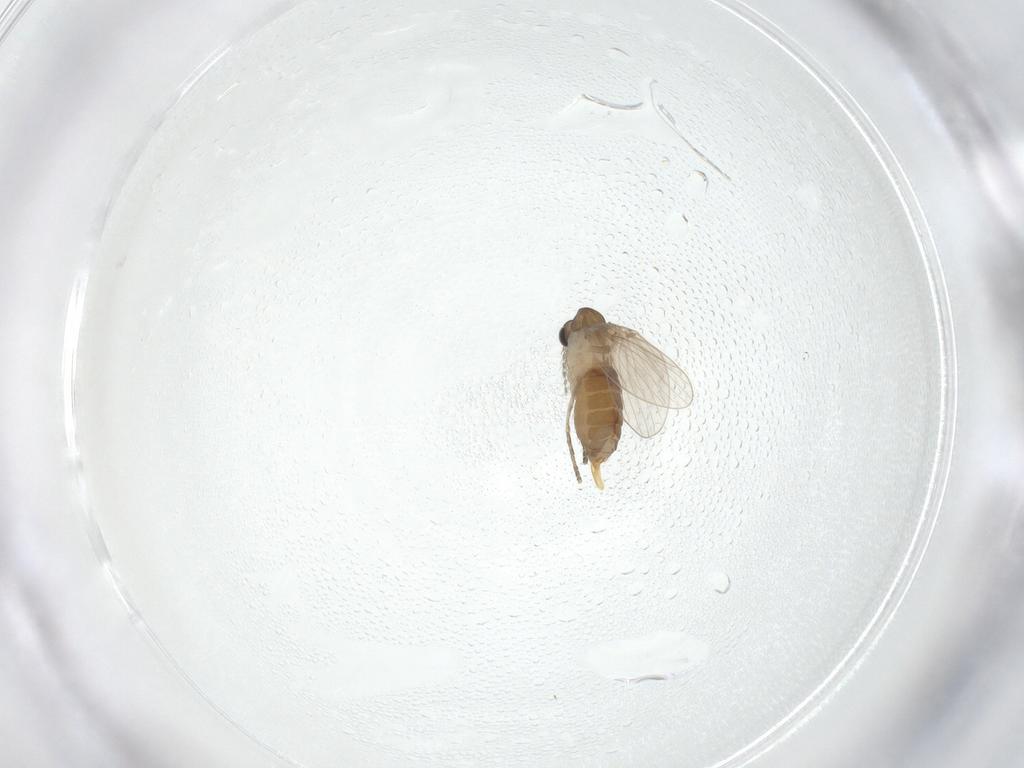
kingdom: Animalia
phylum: Arthropoda
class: Insecta
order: Diptera
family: Psychodidae
